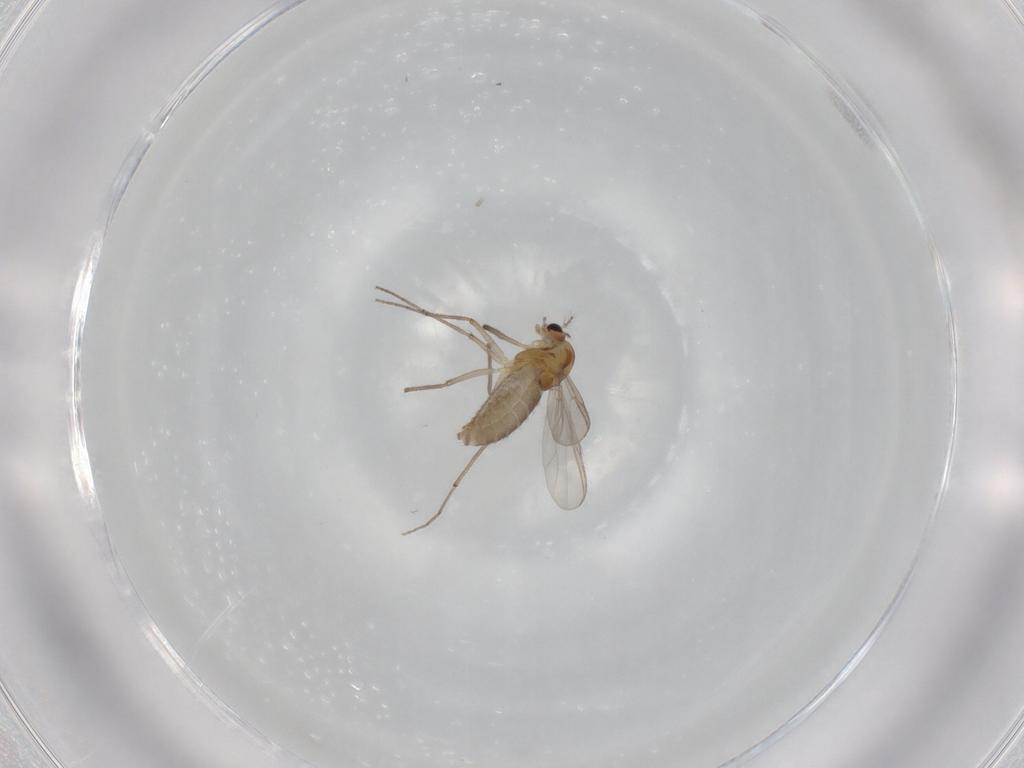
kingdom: Animalia
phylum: Arthropoda
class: Insecta
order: Diptera
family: Chironomidae
